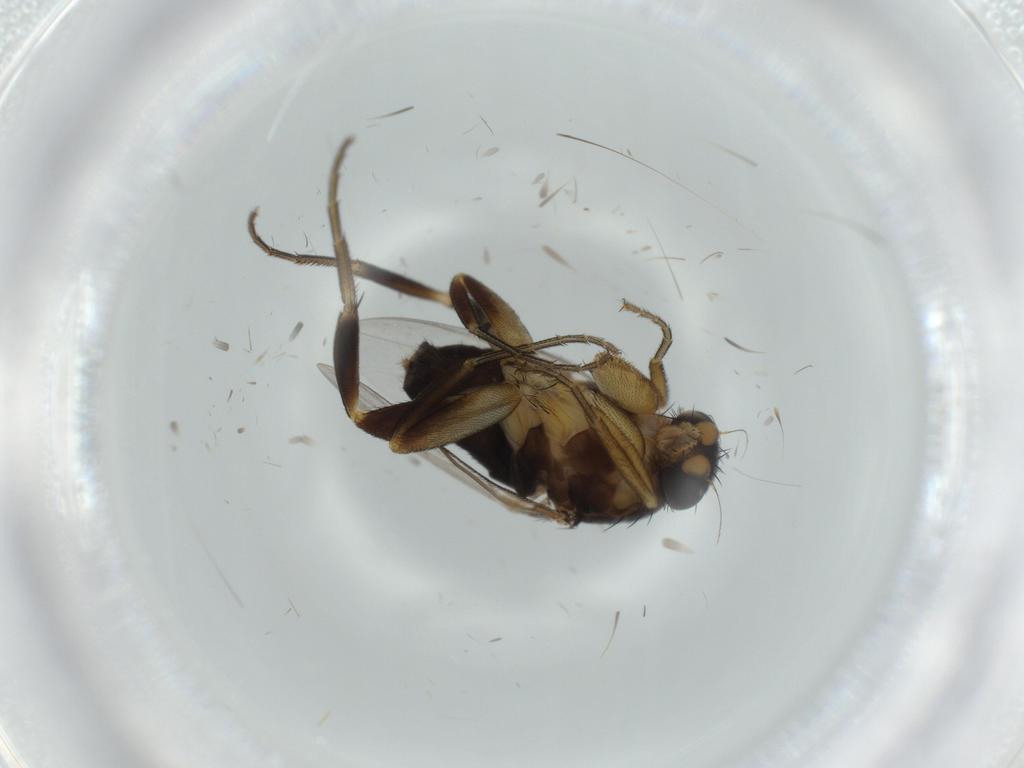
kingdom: Animalia
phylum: Arthropoda
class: Insecta
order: Diptera
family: Phoridae
